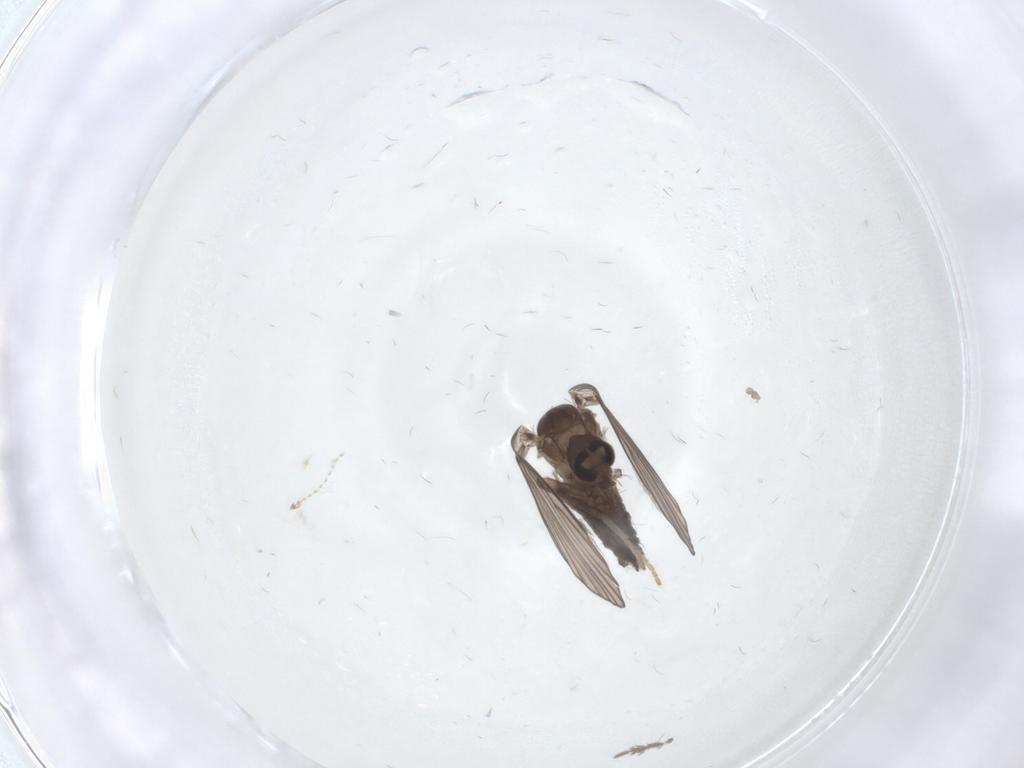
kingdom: Animalia
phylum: Arthropoda
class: Insecta
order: Diptera
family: Psychodidae
